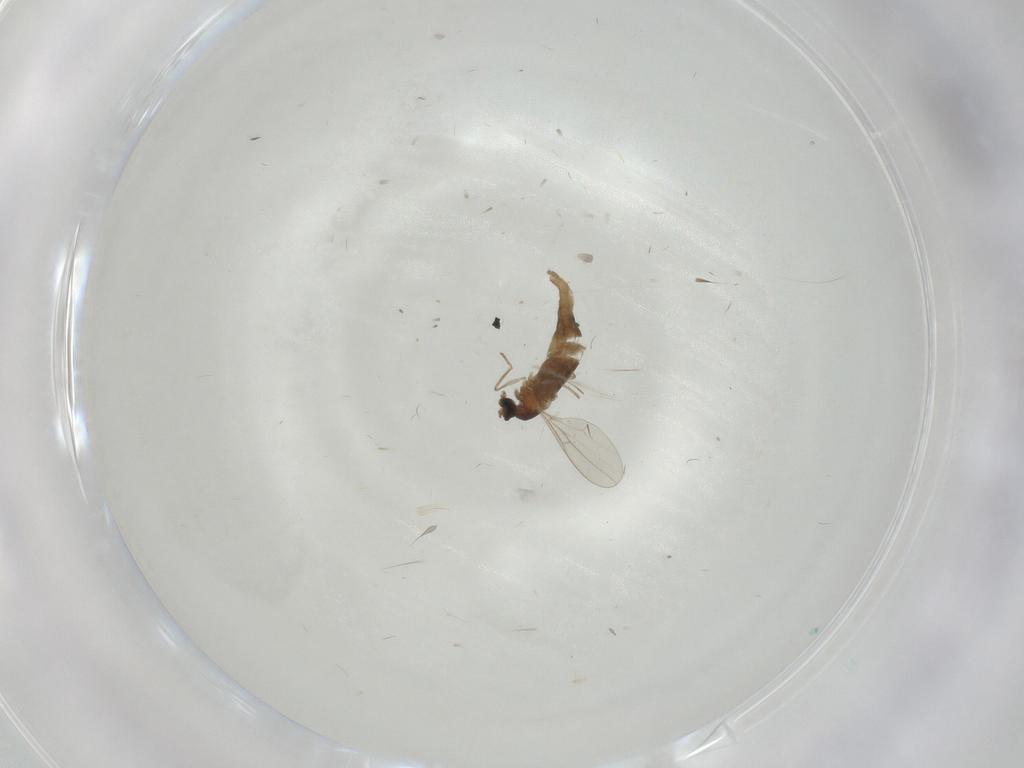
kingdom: Animalia
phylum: Arthropoda
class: Insecta
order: Diptera
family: Cecidomyiidae
